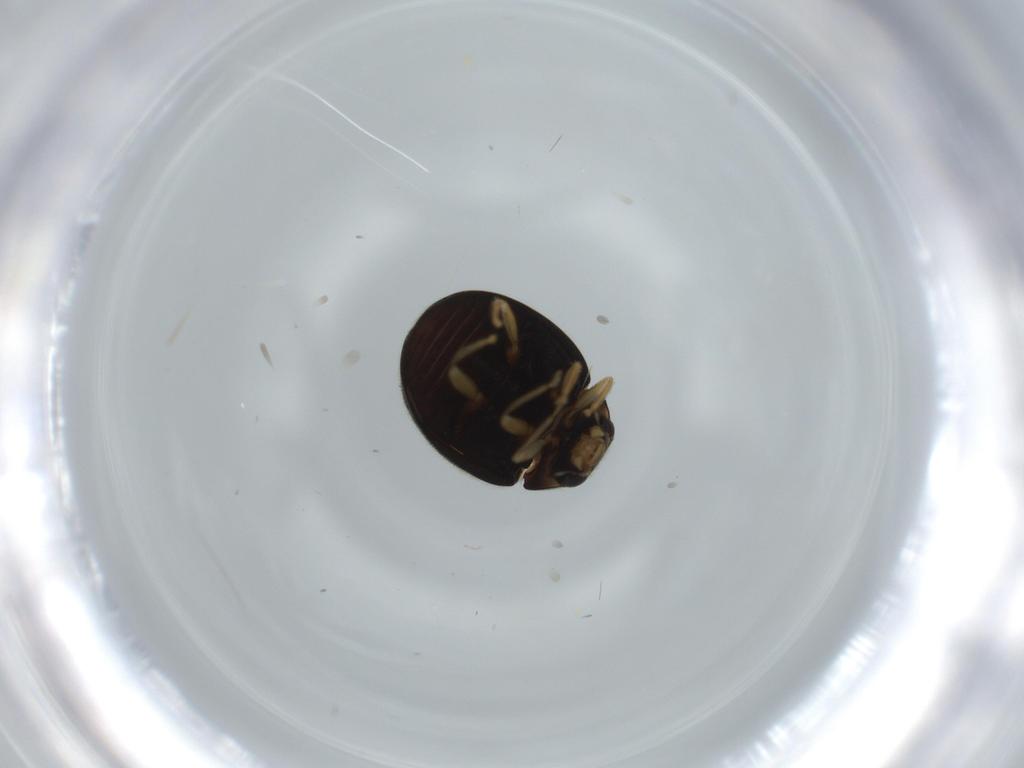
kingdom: Animalia
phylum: Arthropoda
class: Insecta
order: Coleoptera
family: Coccinellidae
